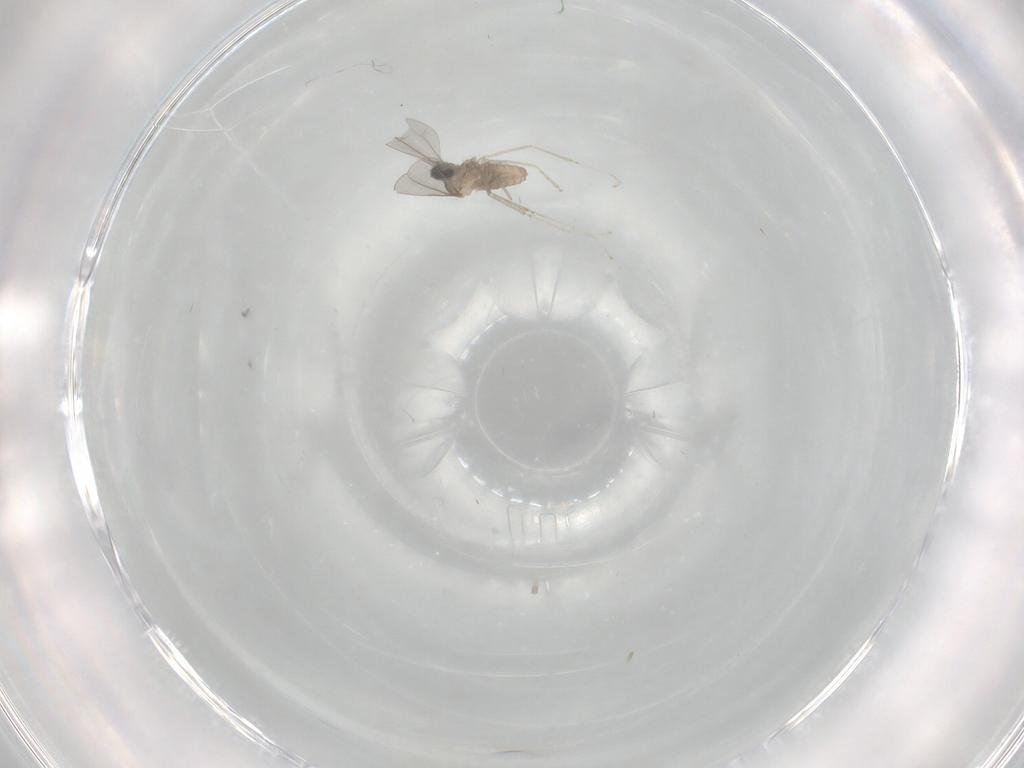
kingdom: Animalia
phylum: Arthropoda
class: Insecta
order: Diptera
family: Cecidomyiidae
